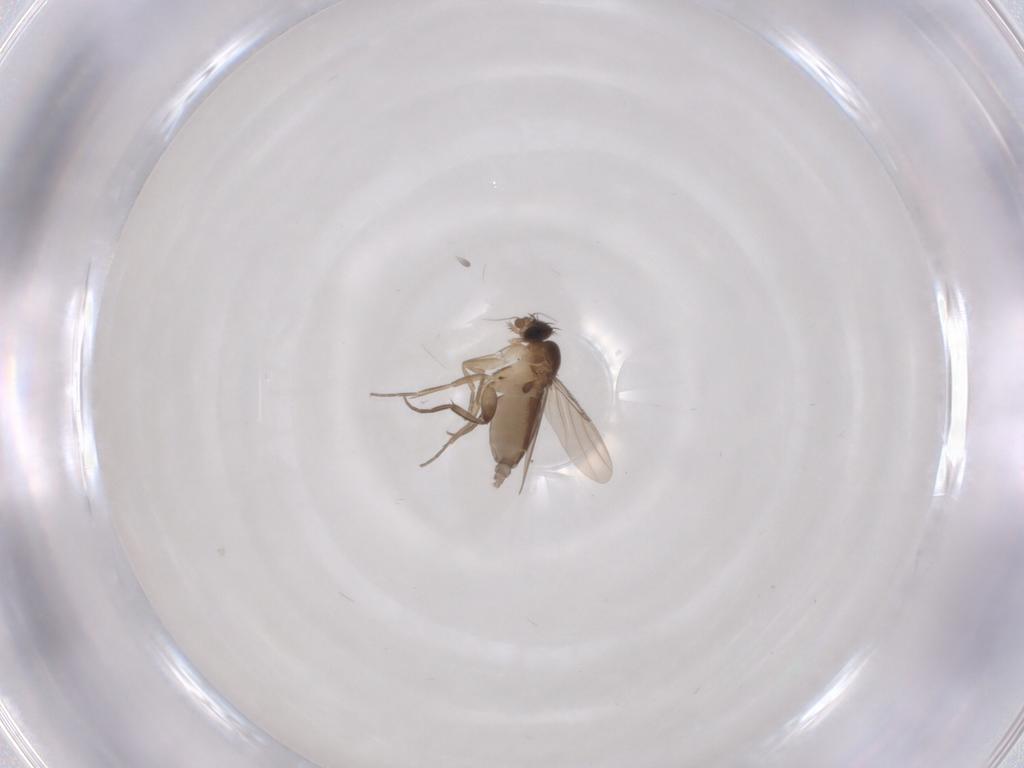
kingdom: Animalia
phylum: Arthropoda
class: Insecta
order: Diptera
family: Phoridae
